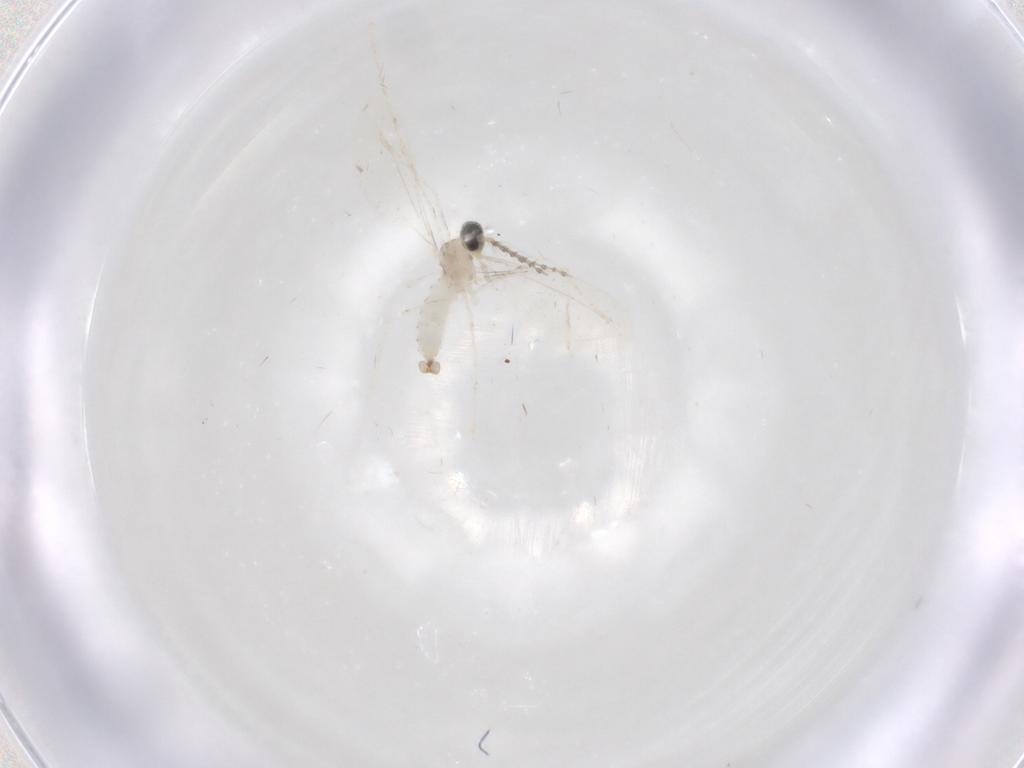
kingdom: Animalia
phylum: Arthropoda
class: Insecta
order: Diptera
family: Cecidomyiidae
